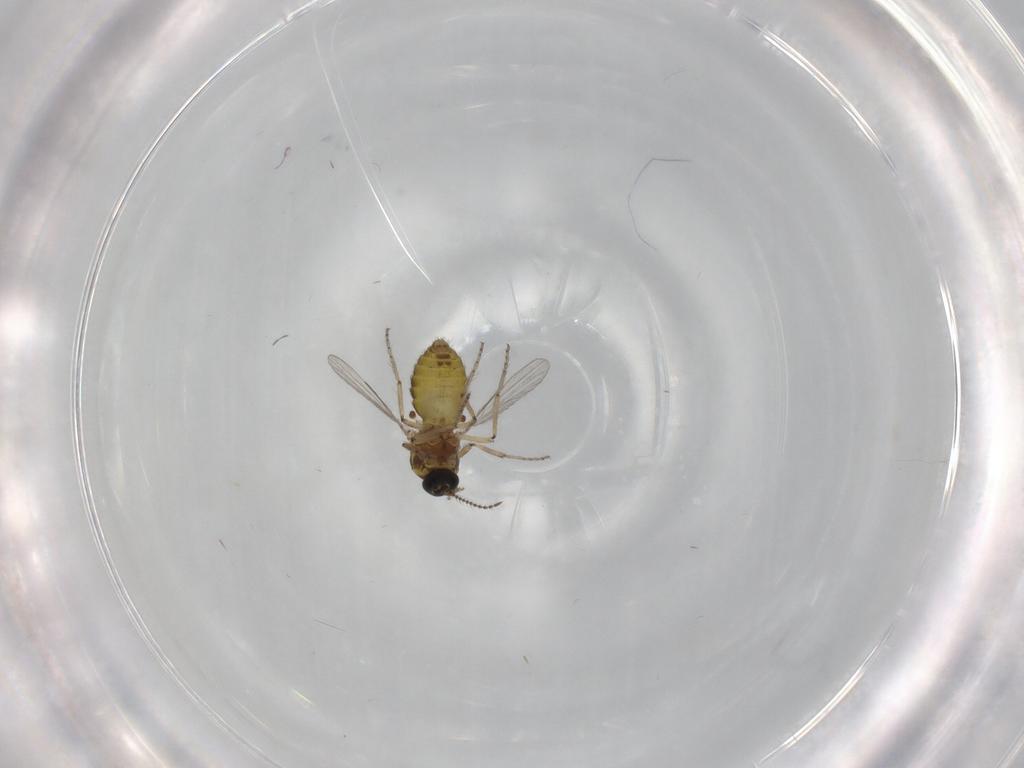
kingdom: Animalia
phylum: Arthropoda
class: Insecta
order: Diptera
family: Ceratopogonidae
